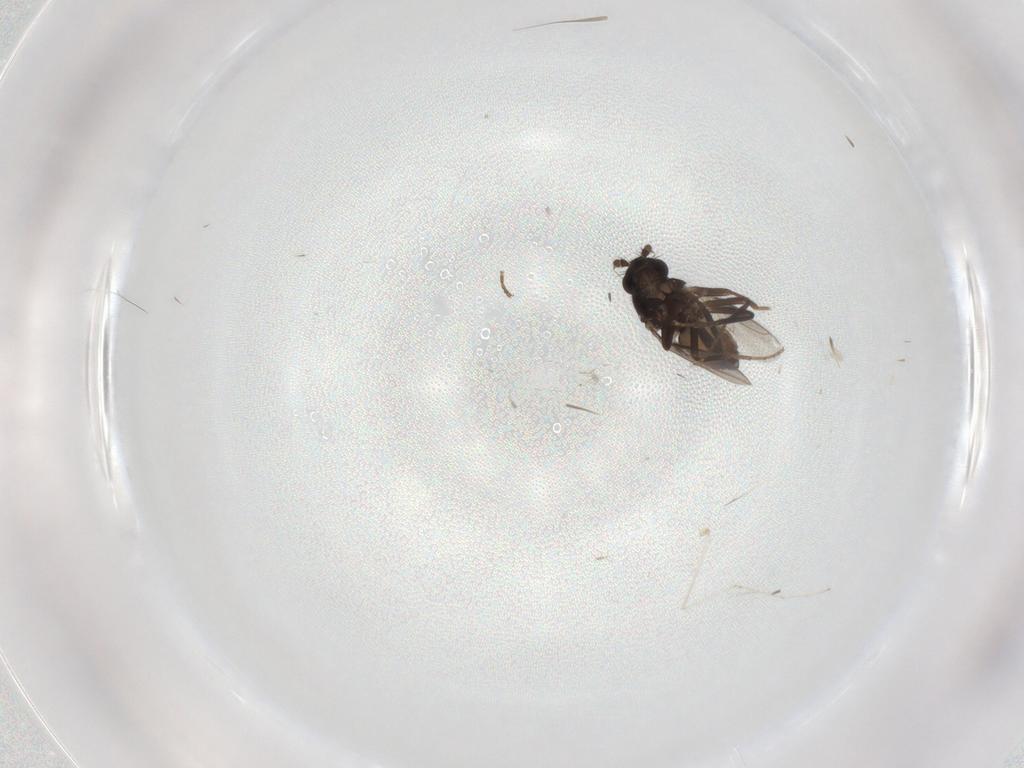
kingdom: Animalia
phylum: Arthropoda
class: Insecta
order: Diptera
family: Sphaeroceridae
